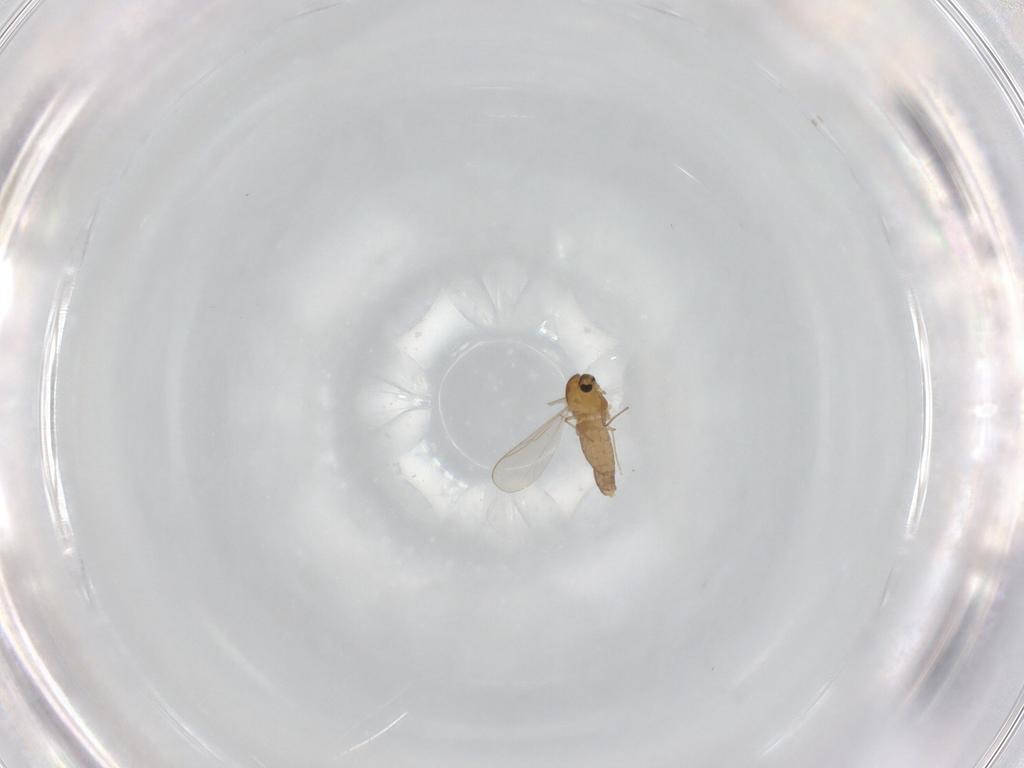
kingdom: Animalia
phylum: Arthropoda
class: Insecta
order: Diptera
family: Chironomidae
